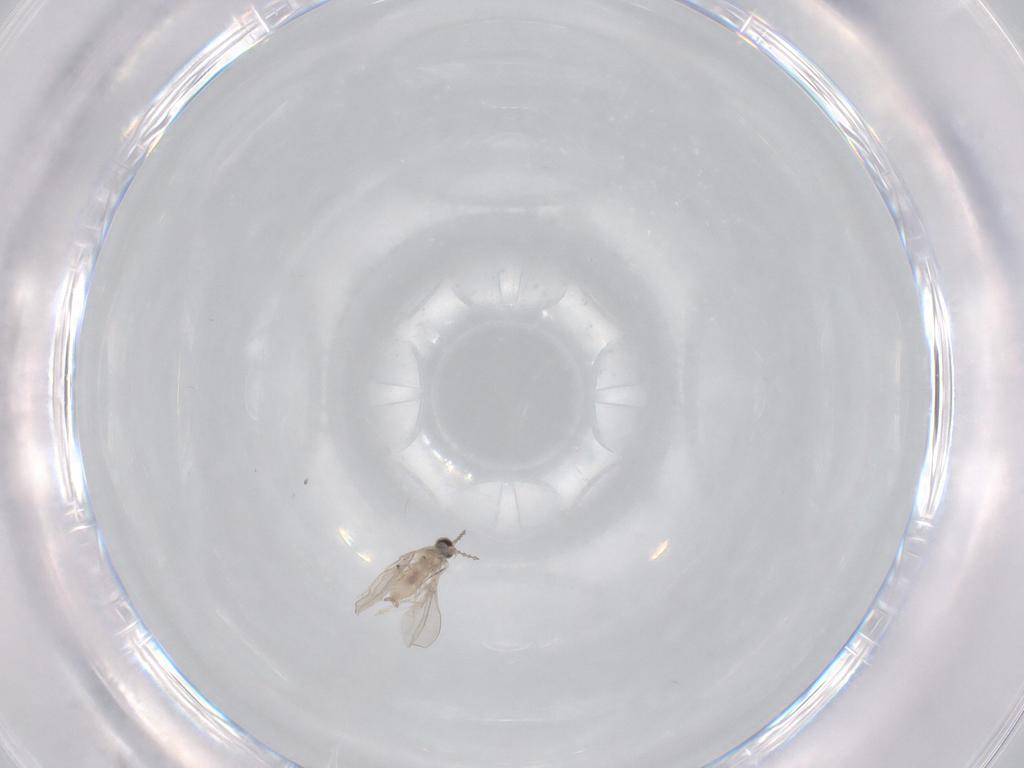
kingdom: Animalia
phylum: Arthropoda
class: Insecta
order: Diptera
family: Cecidomyiidae
